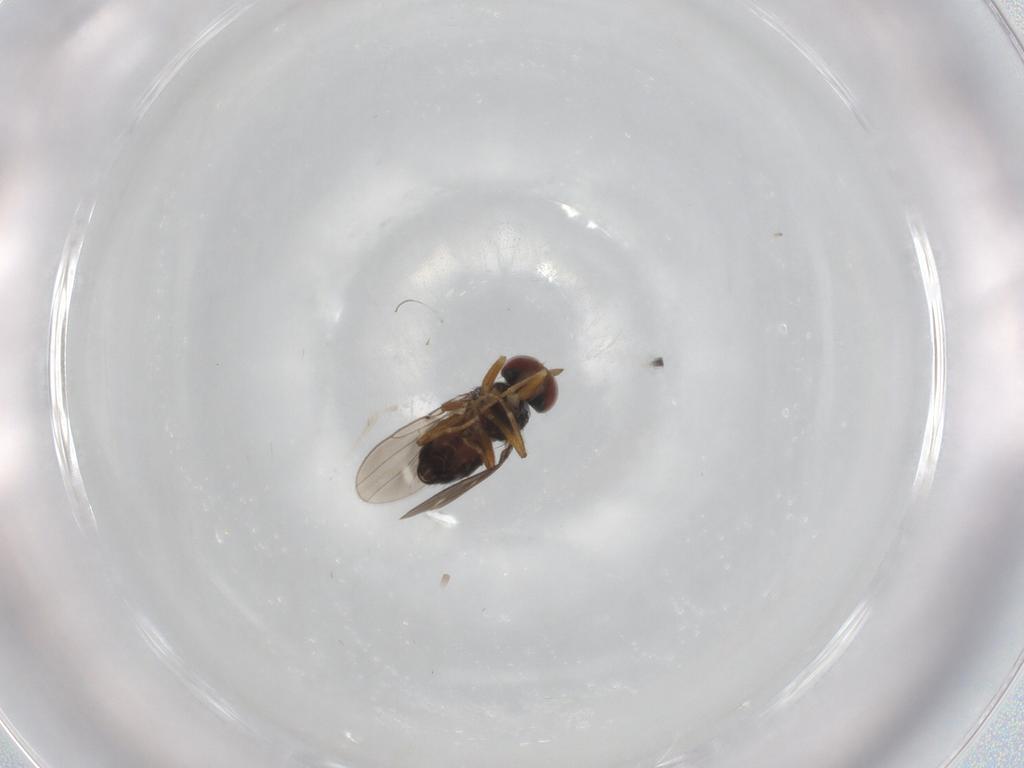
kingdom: Animalia
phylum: Arthropoda
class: Insecta
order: Diptera
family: Ephydridae
